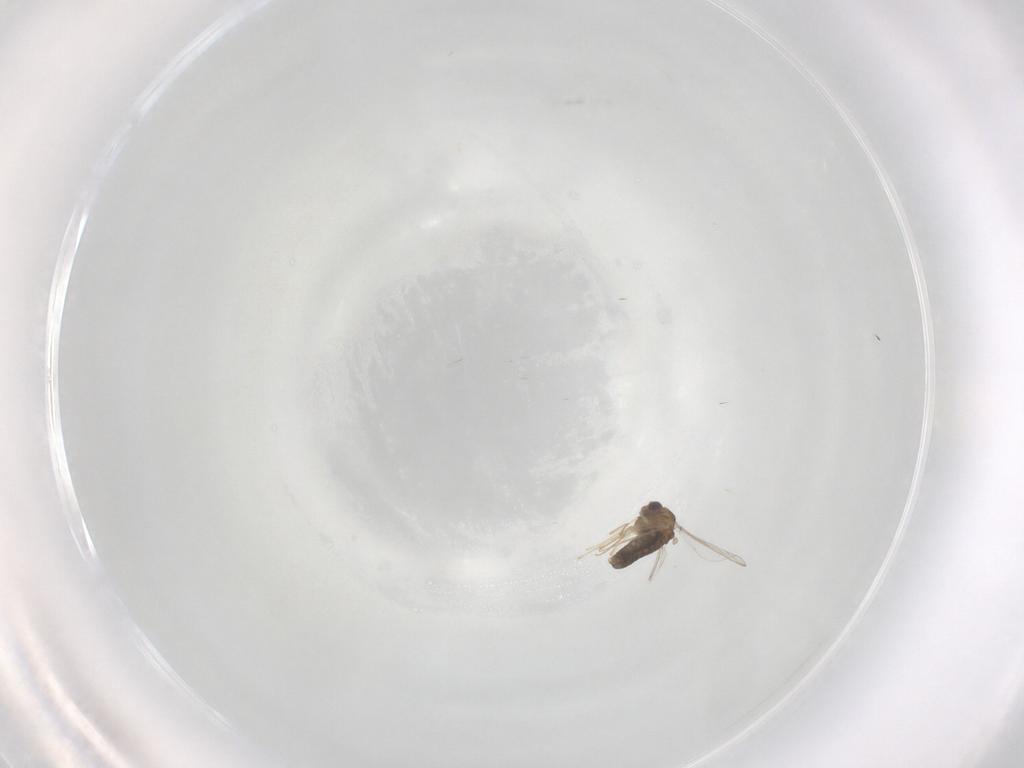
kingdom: Animalia
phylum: Arthropoda
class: Insecta
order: Diptera
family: Chironomidae
